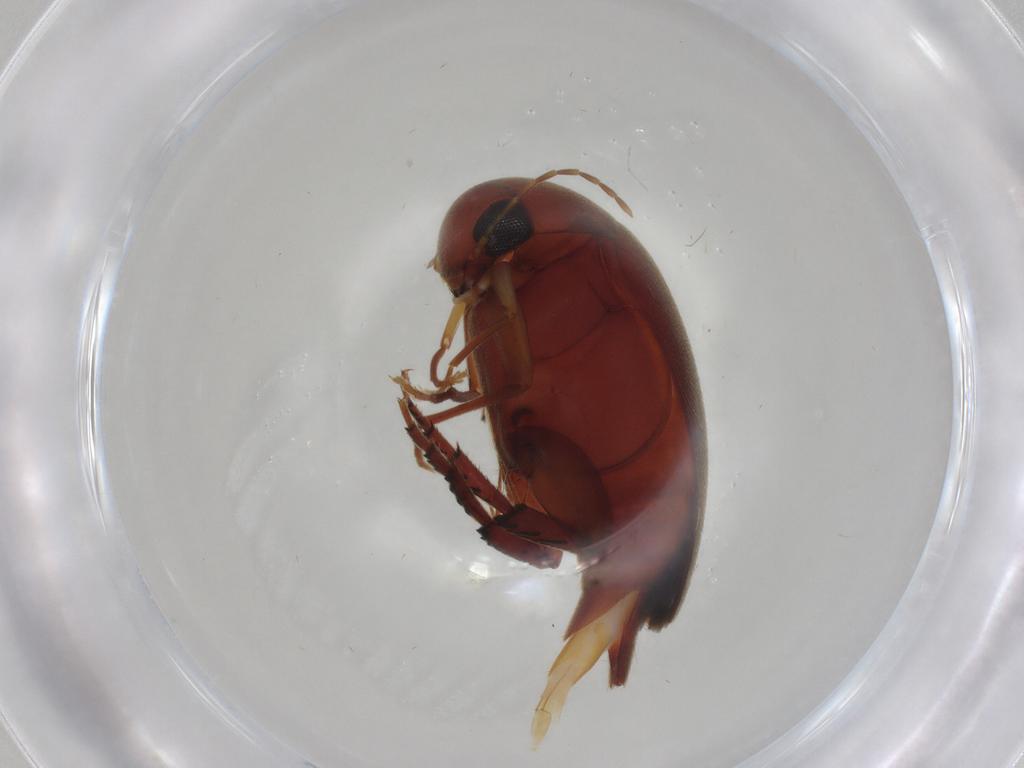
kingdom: Animalia
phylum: Arthropoda
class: Insecta
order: Coleoptera
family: Mordellidae
